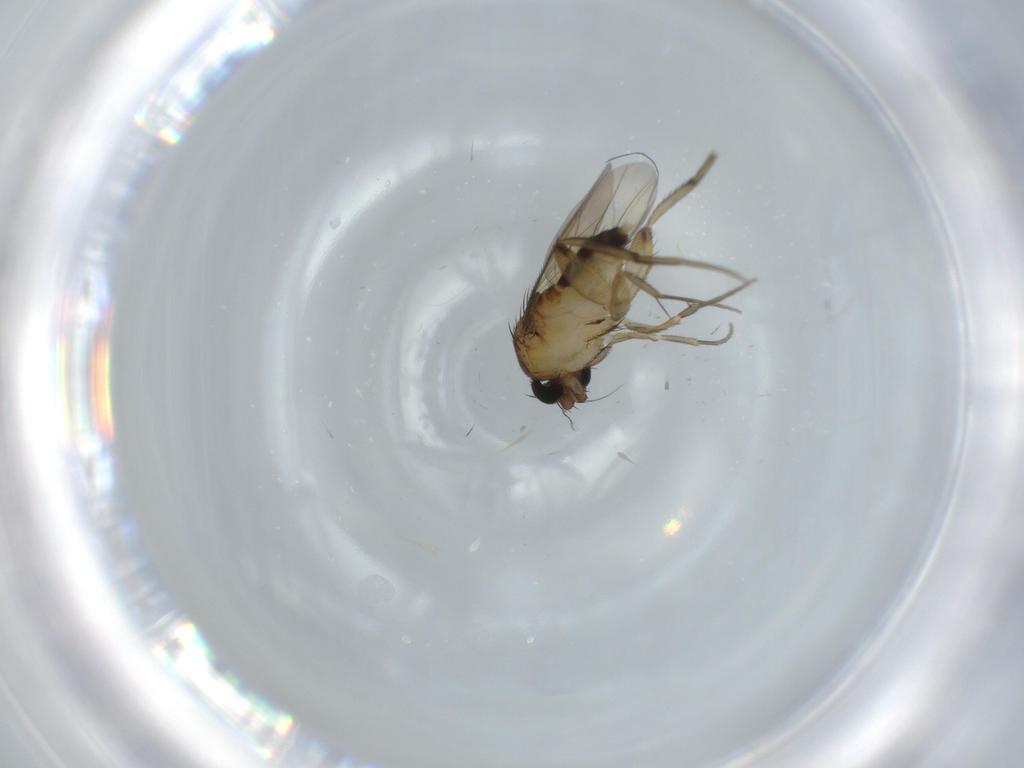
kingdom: Animalia
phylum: Arthropoda
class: Insecta
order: Diptera
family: Phoridae
